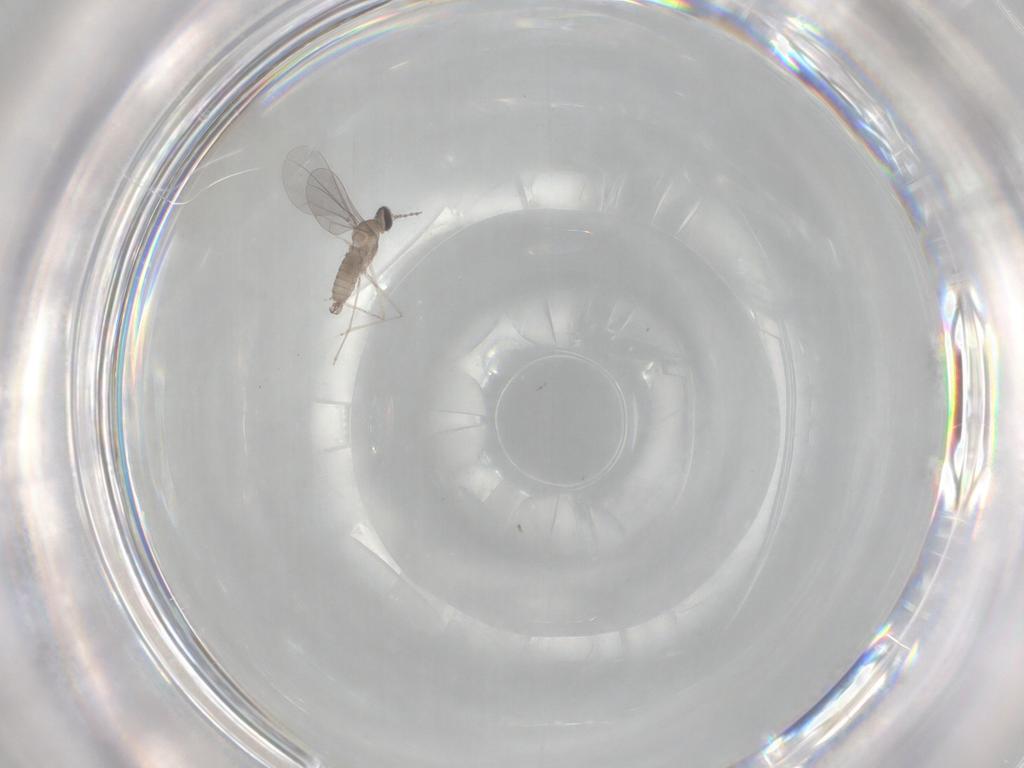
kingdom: Animalia
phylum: Arthropoda
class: Insecta
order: Diptera
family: Cecidomyiidae
